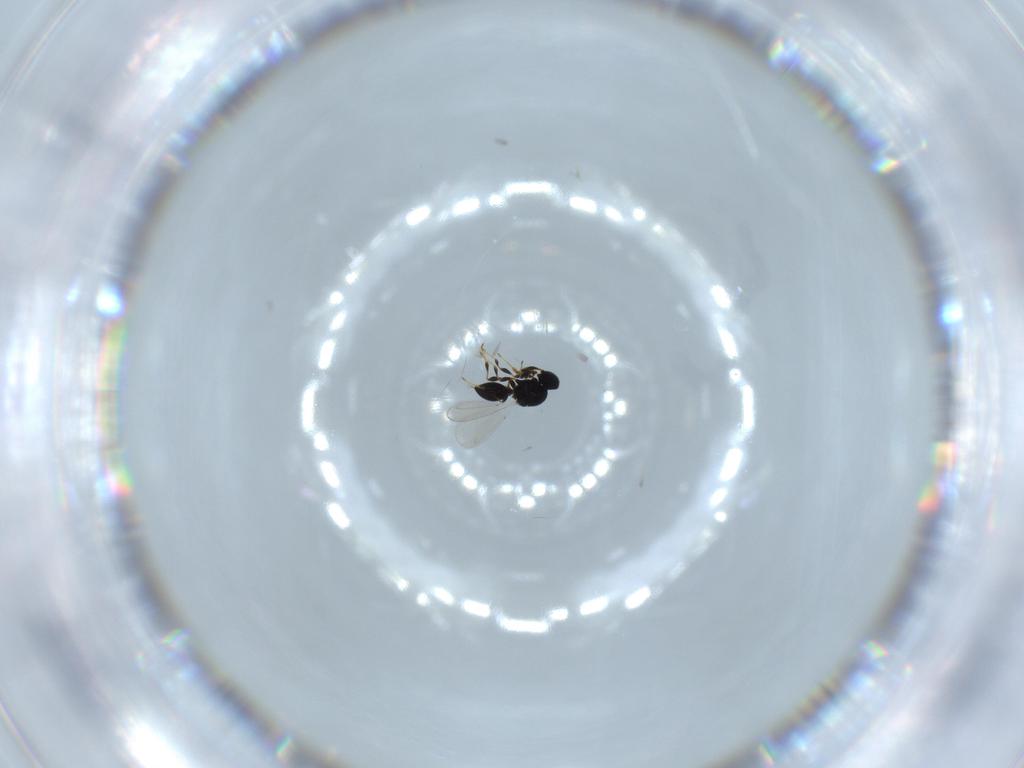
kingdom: Animalia
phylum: Arthropoda
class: Insecta
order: Hymenoptera
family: Platygastridae
